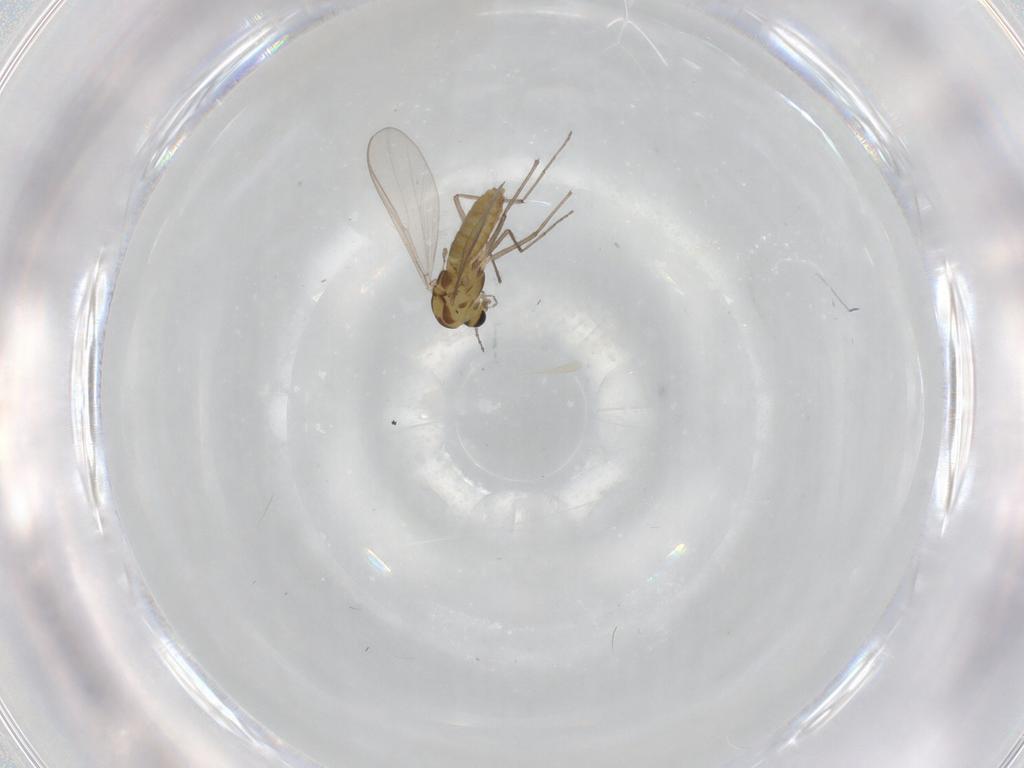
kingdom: Animalia
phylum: Arthropoda
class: Insecta
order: Diptera
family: Chironomidae
